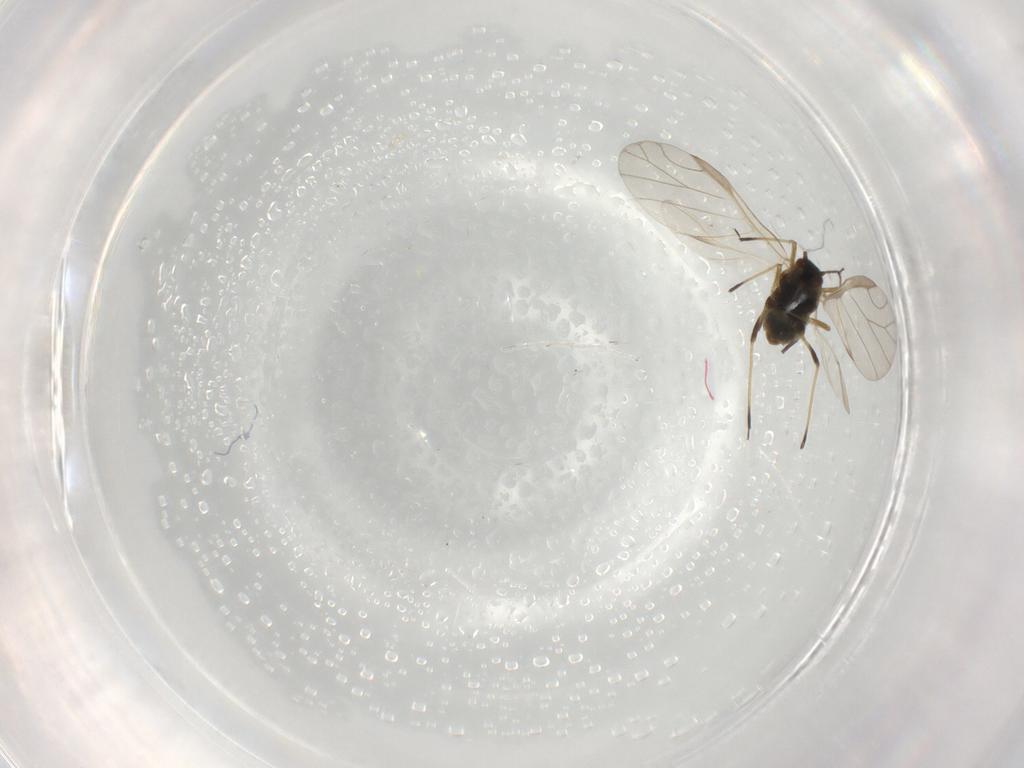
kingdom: Animalia
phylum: Arthropoda
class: Insecta
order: Hemiptera
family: Aphididae
